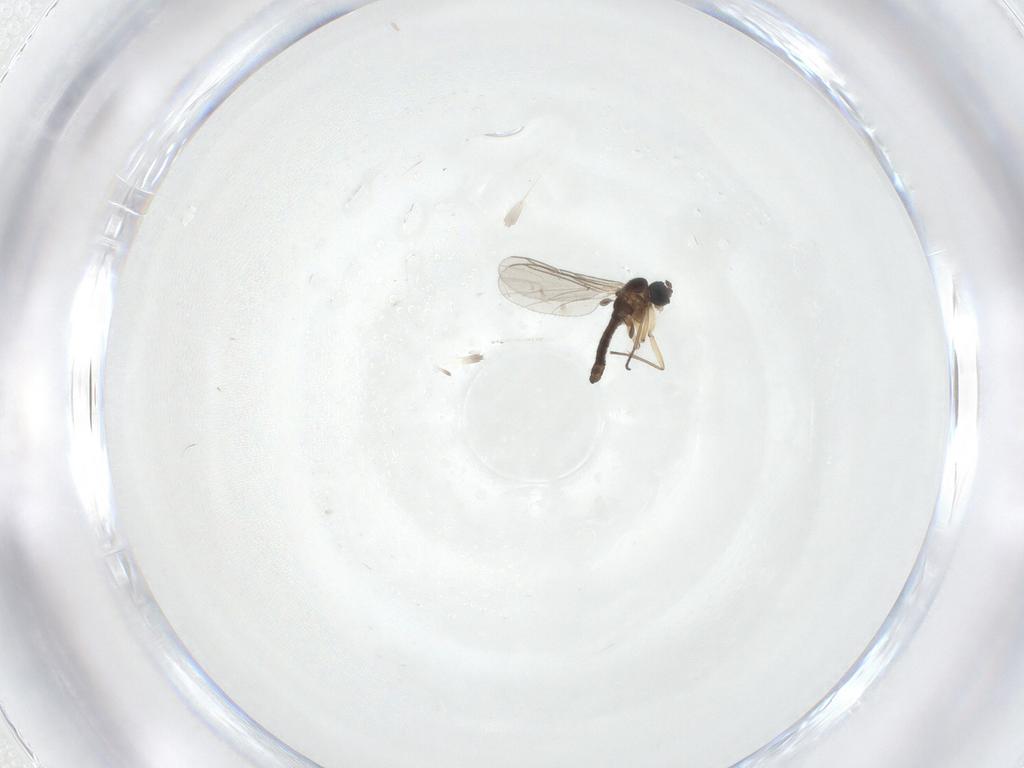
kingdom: Animalia
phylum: Arthropoda
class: Insecta
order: Diptera
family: Sciaridae
